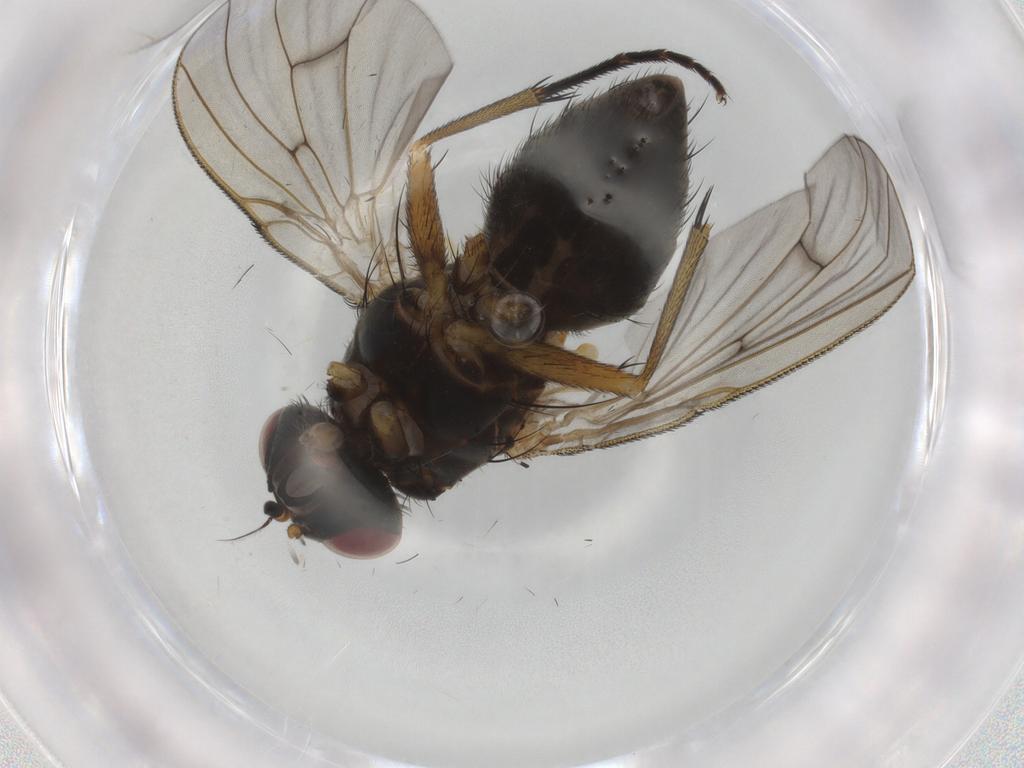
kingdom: Animalia
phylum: Arthropoda
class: Insecta
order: Diptera
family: Muscidae
